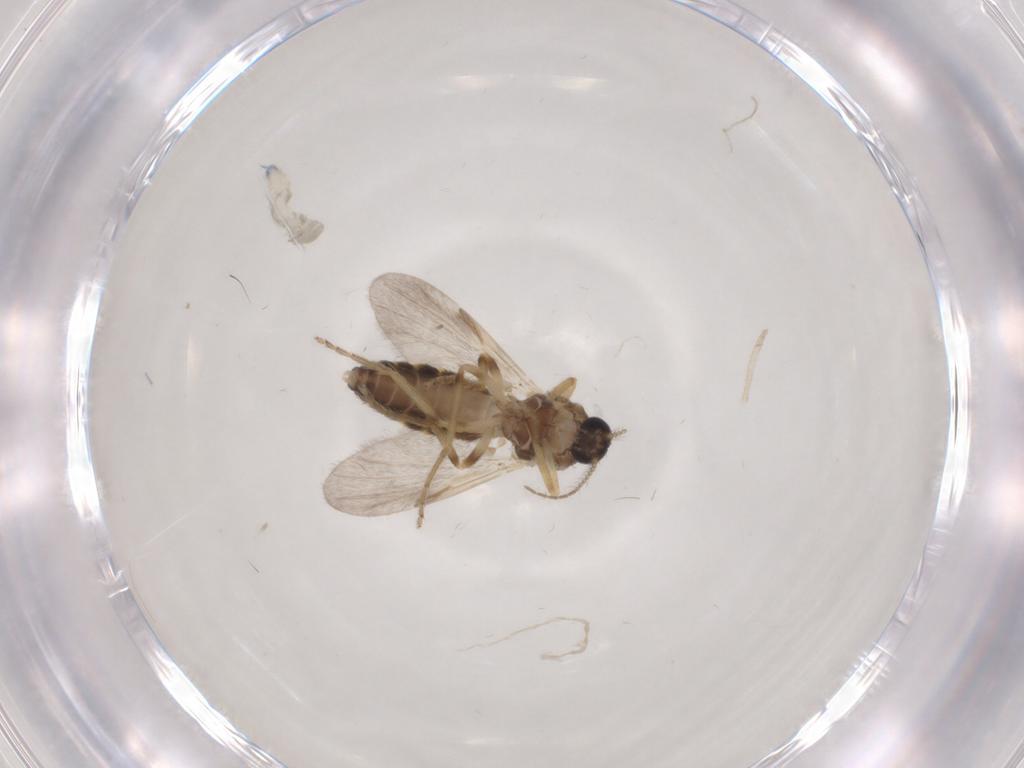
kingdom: Animalia
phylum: Arthropoda
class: Insecta
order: Diptera
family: Ceratopogonidae
